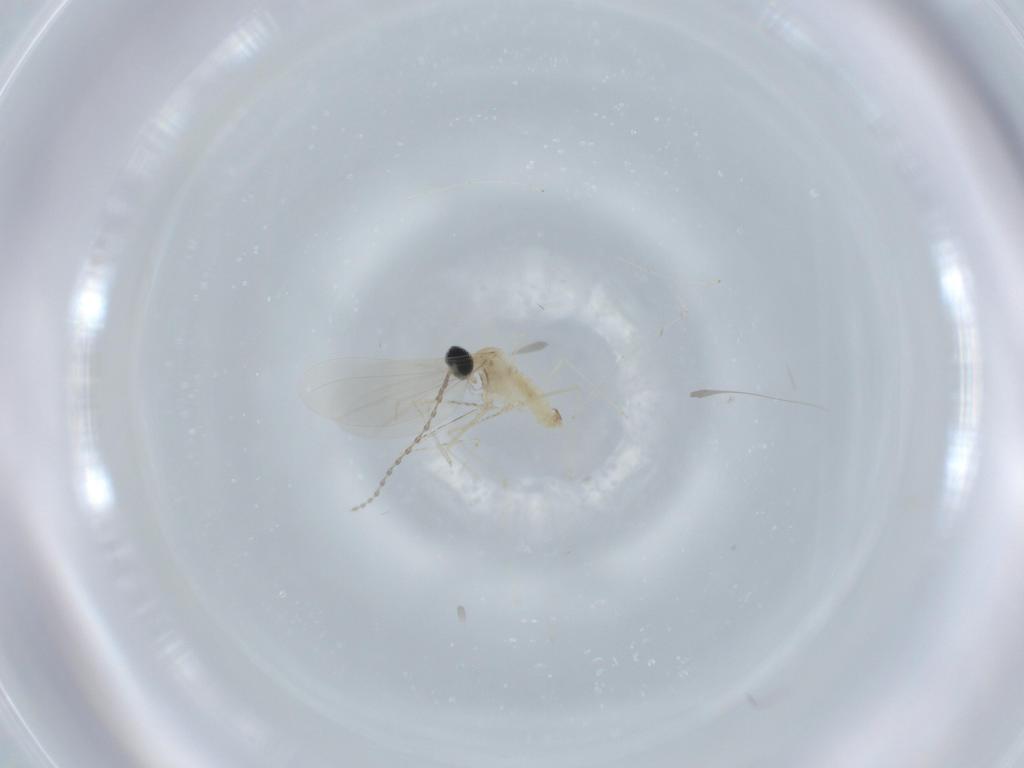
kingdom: Animalia
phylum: Arthropoda
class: Insecta
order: Diptera
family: Cecidomyiidae
